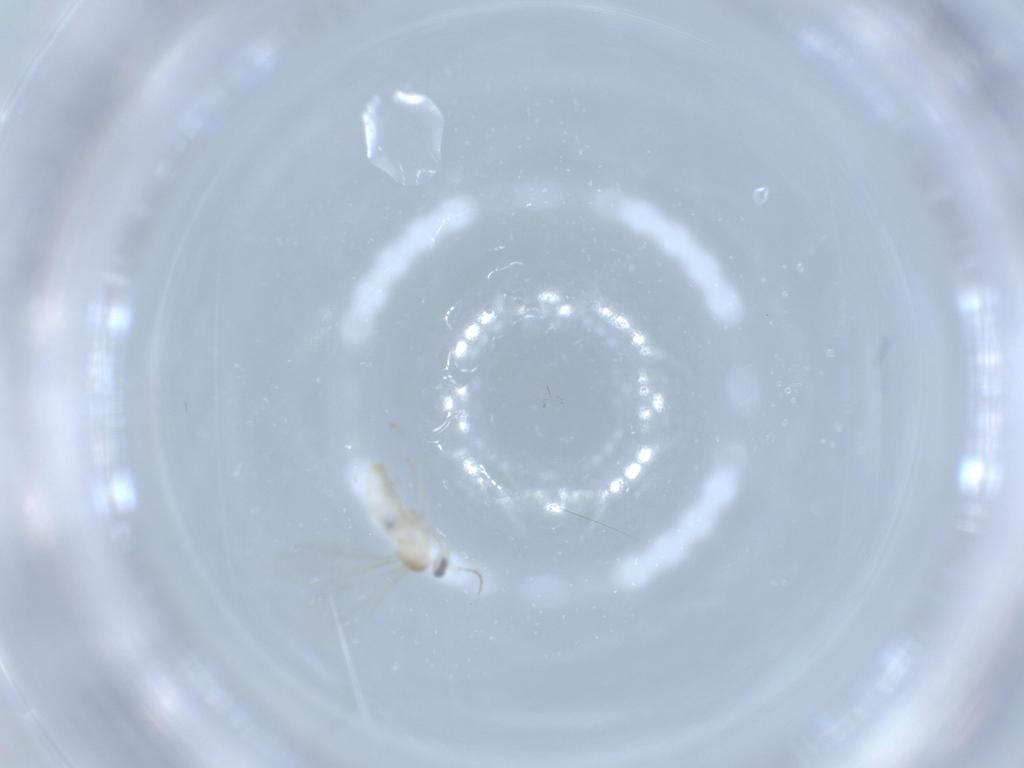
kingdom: Animalia
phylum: Arthropoda
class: Insecta
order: Diptera
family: Cecidomyiidae
